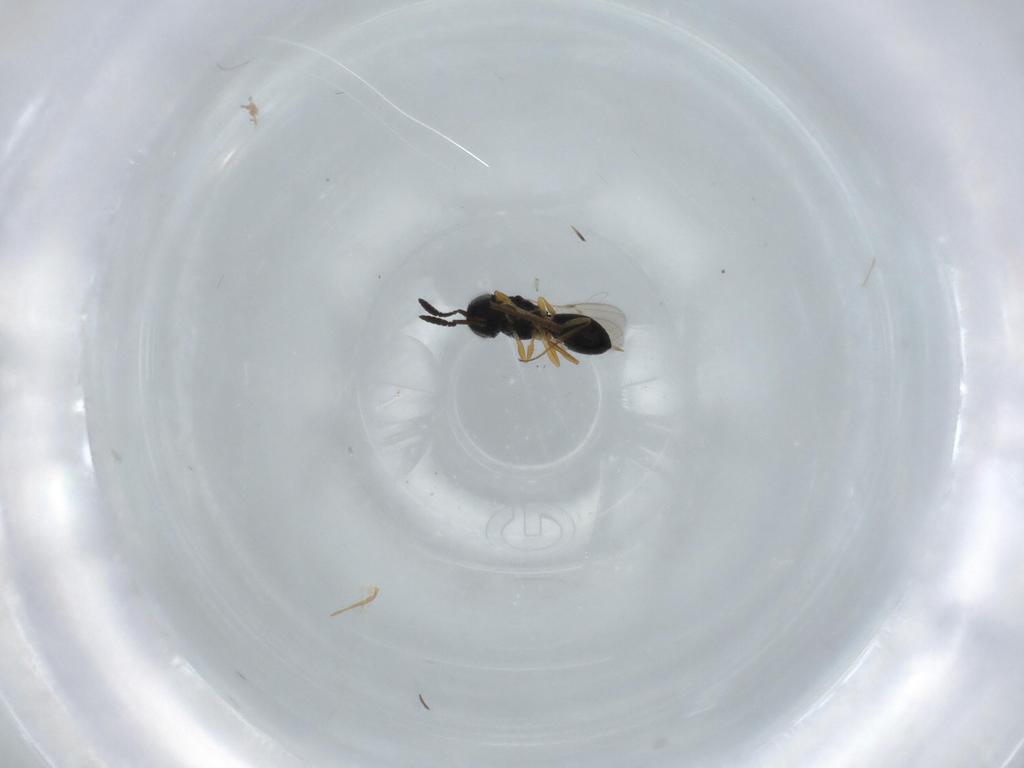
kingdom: Animalia
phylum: Arthropoda
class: Insecta
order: Hymenoptera
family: Scelionidae
